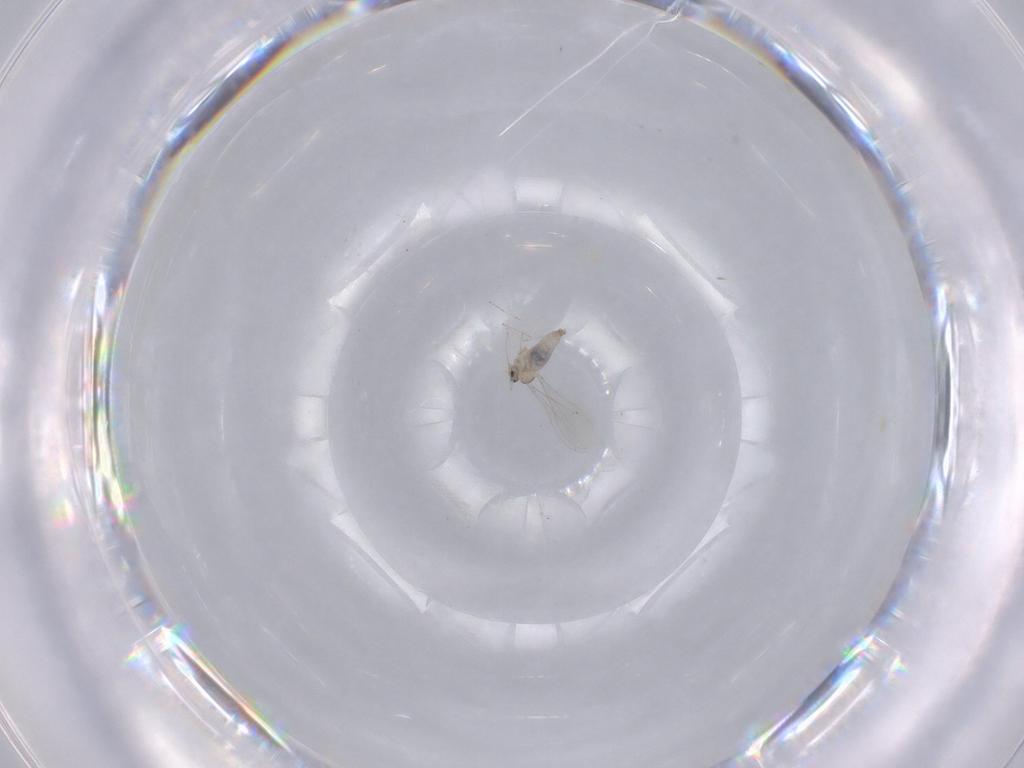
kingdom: Animalia
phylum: Arthropoda
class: Insecta
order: Diptera
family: Cecidomyiidae
